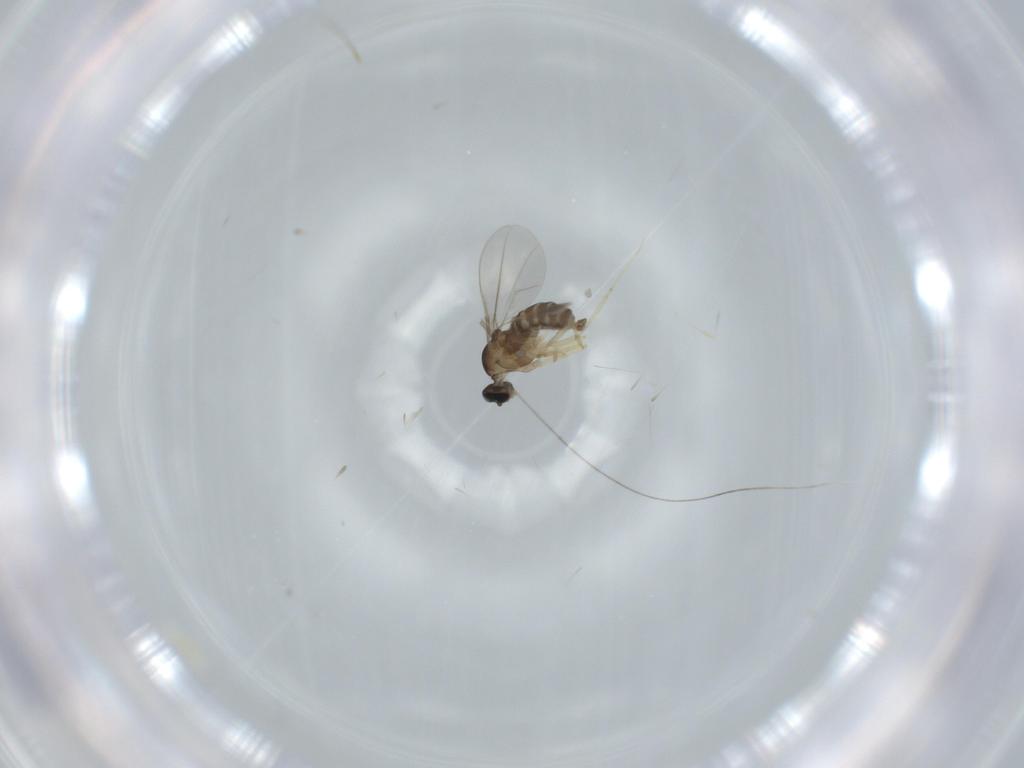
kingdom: Animalia
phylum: Arthropoda
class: Insecta
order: Diptera
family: Cecidomyiidae
